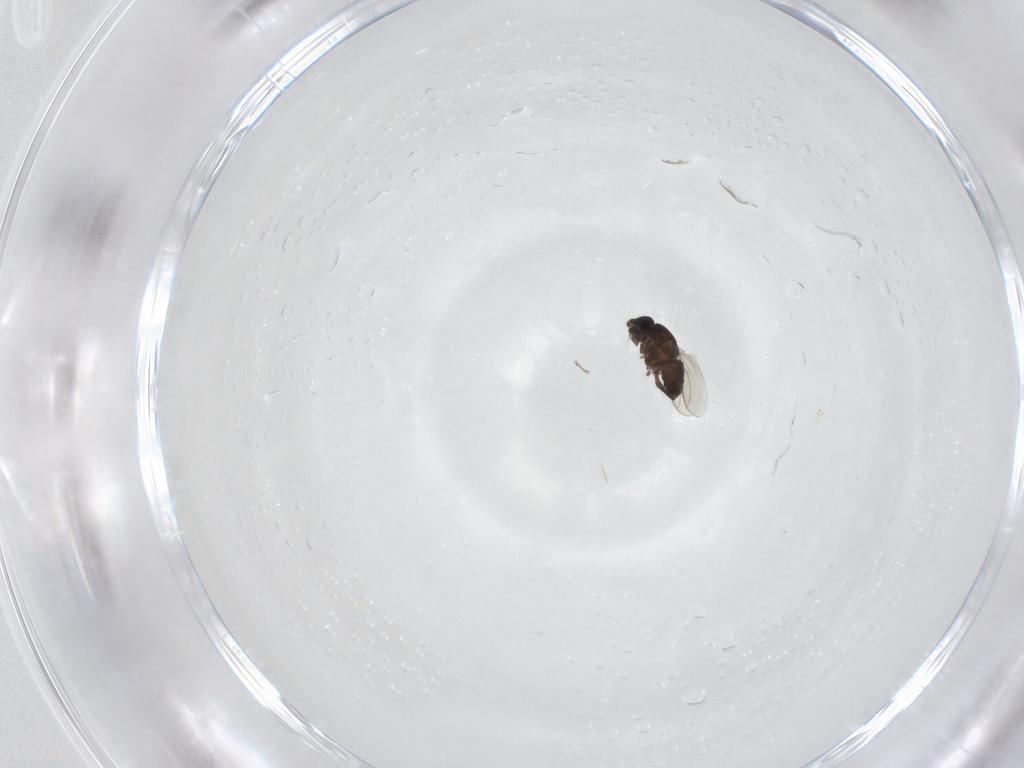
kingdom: Animalia
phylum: Arthropoda
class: Insecta
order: Diptera
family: Sphaeroceridae
